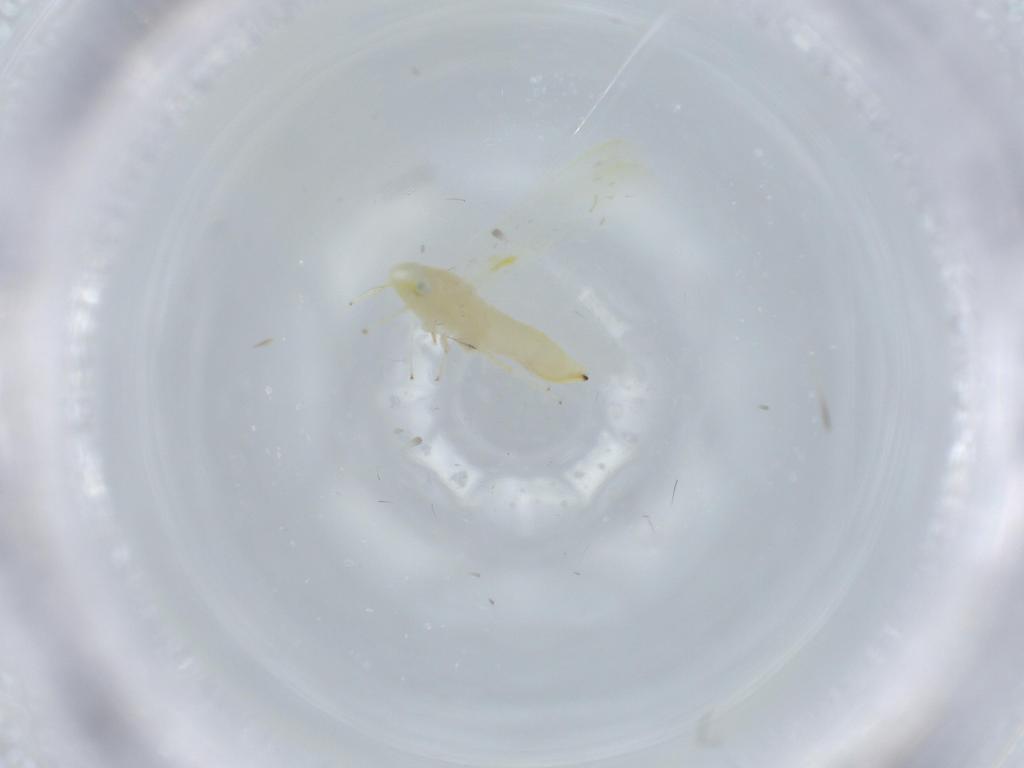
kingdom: Animalia
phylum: Arthropoda
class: Insecta
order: Hemiptera
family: Cicadellidae
